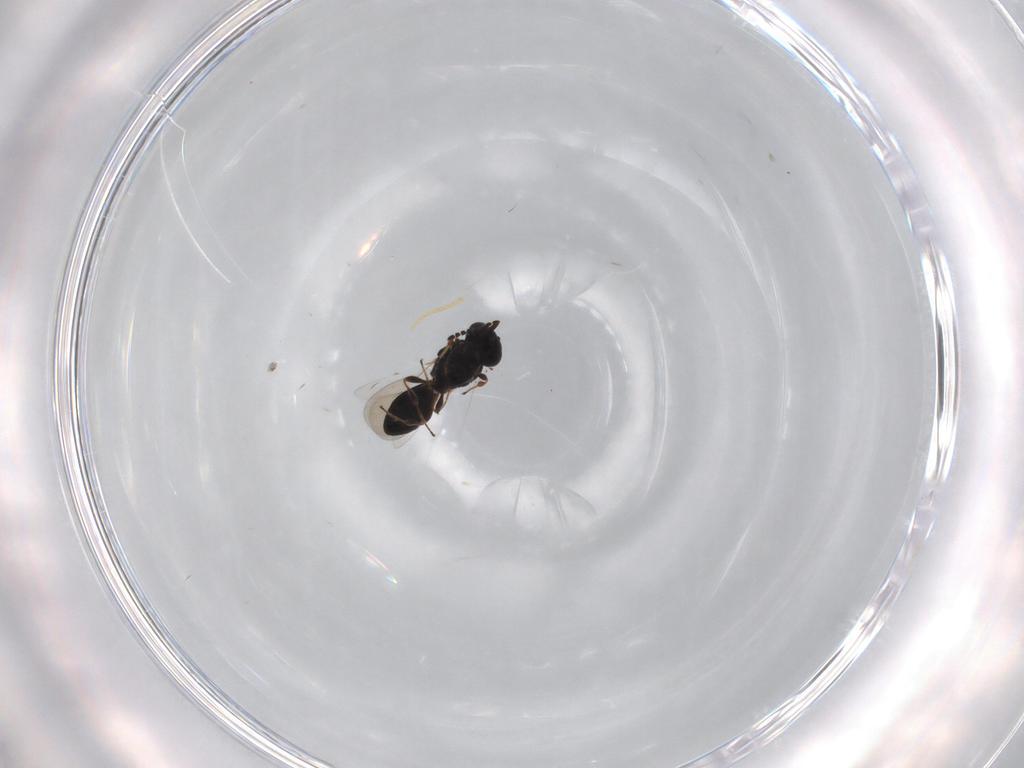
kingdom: Animalia
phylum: Arthropoda
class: Insecta
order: Hymenoptera
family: Platygastridae
